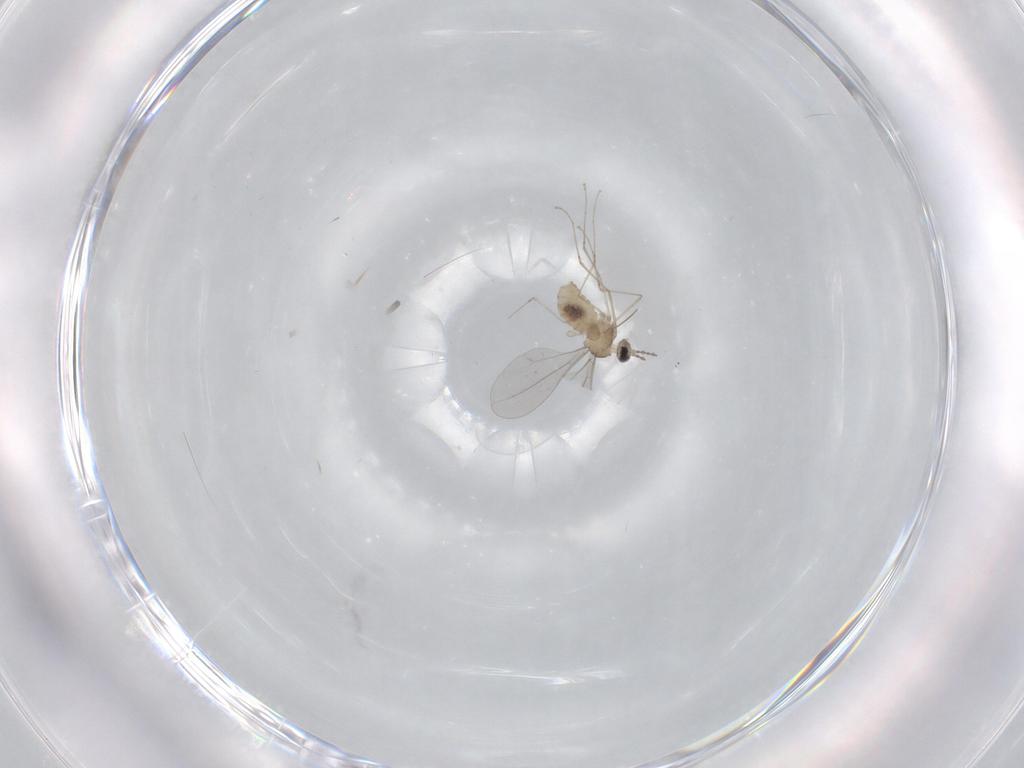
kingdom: Animalia
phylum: Arthropoda
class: Insecta
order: Diptera
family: Cecidomyiidae
